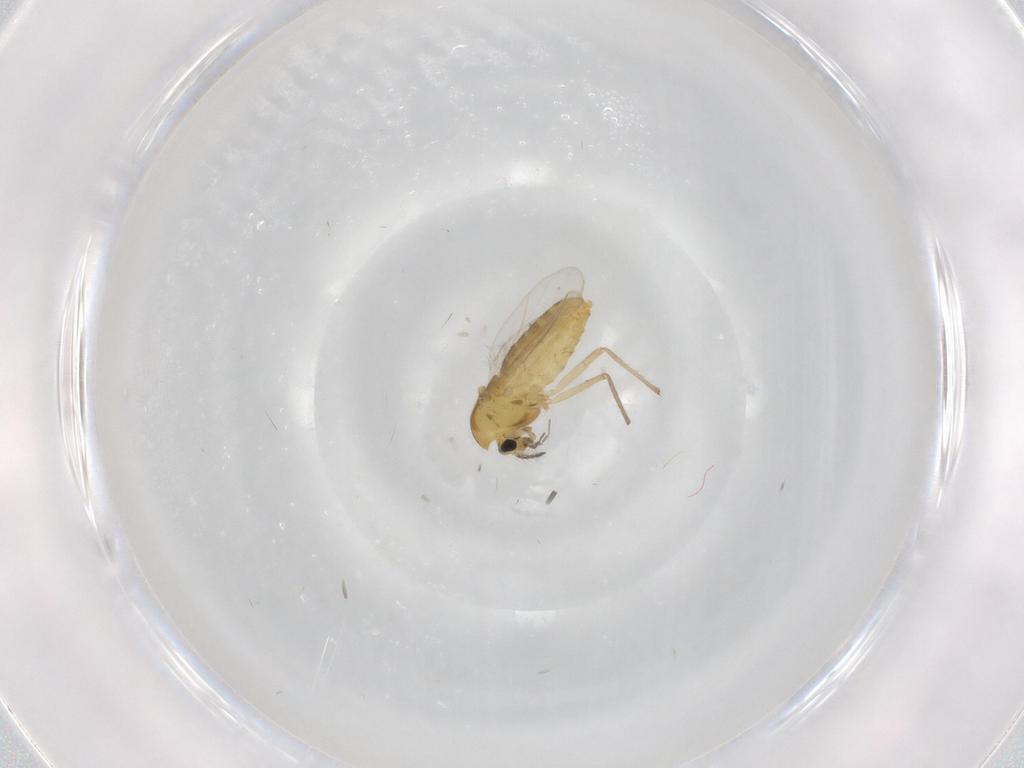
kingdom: Animalia
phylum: Arthropoda
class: Insecta
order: Diptera
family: Chironomidae
